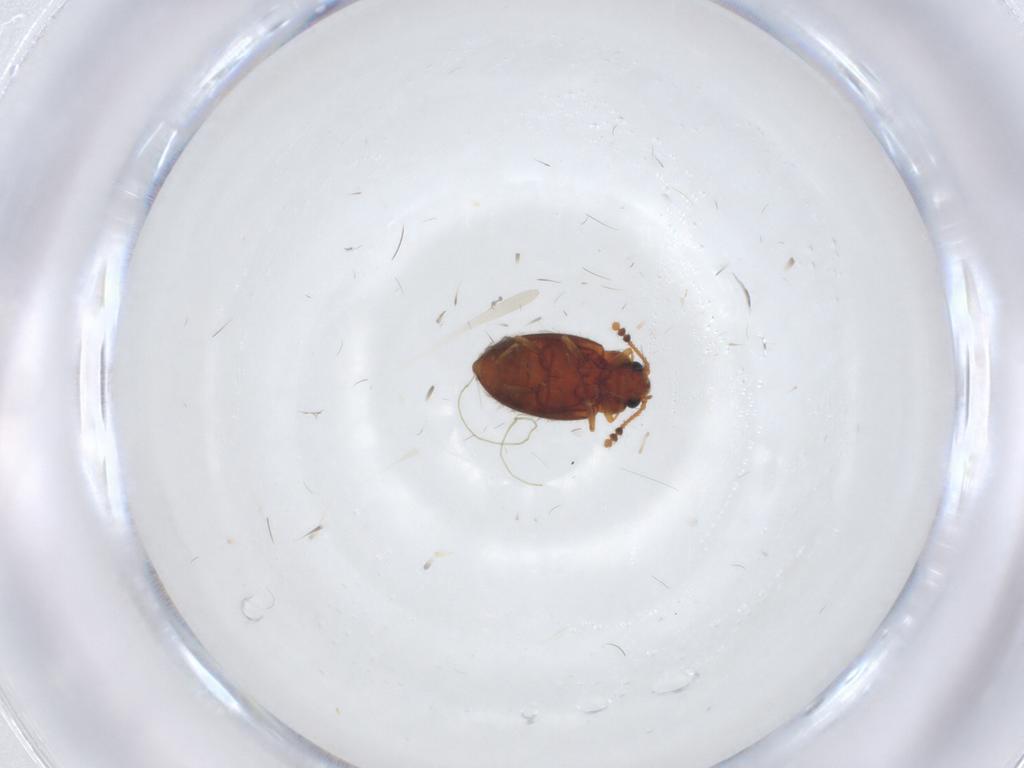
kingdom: Animalia
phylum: Arthropoda
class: Insecta
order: Coleoptera
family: Erotylidae
